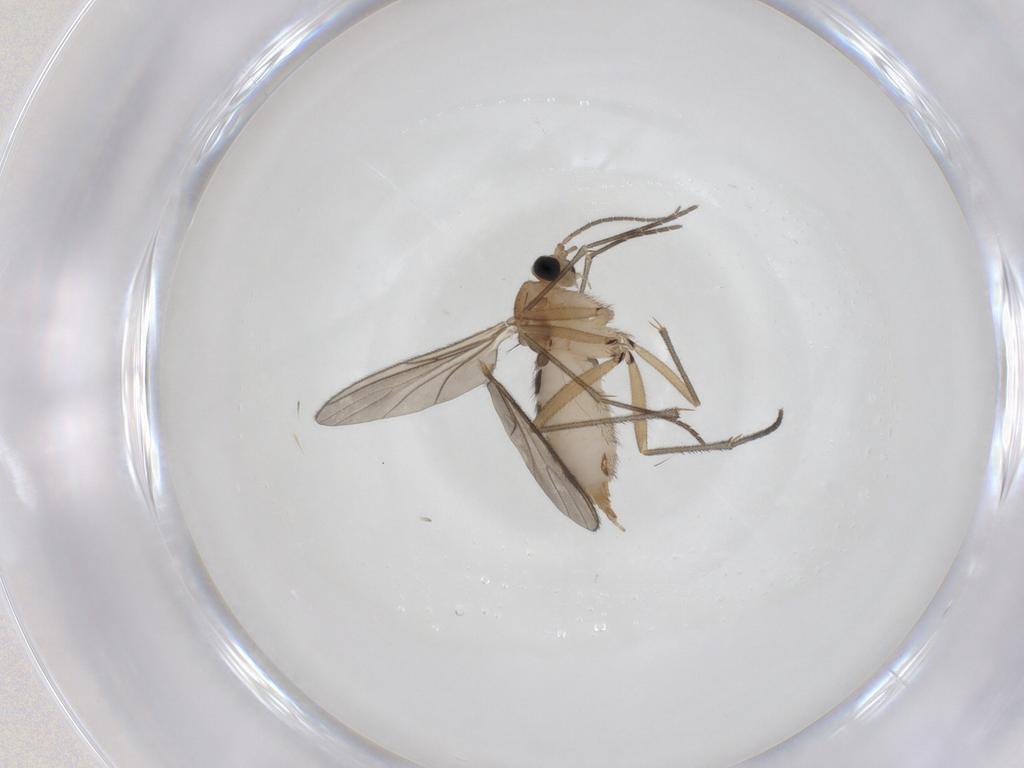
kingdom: Animalia
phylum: Arthropoda
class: Insecta
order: Diptera
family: Sciaridae
